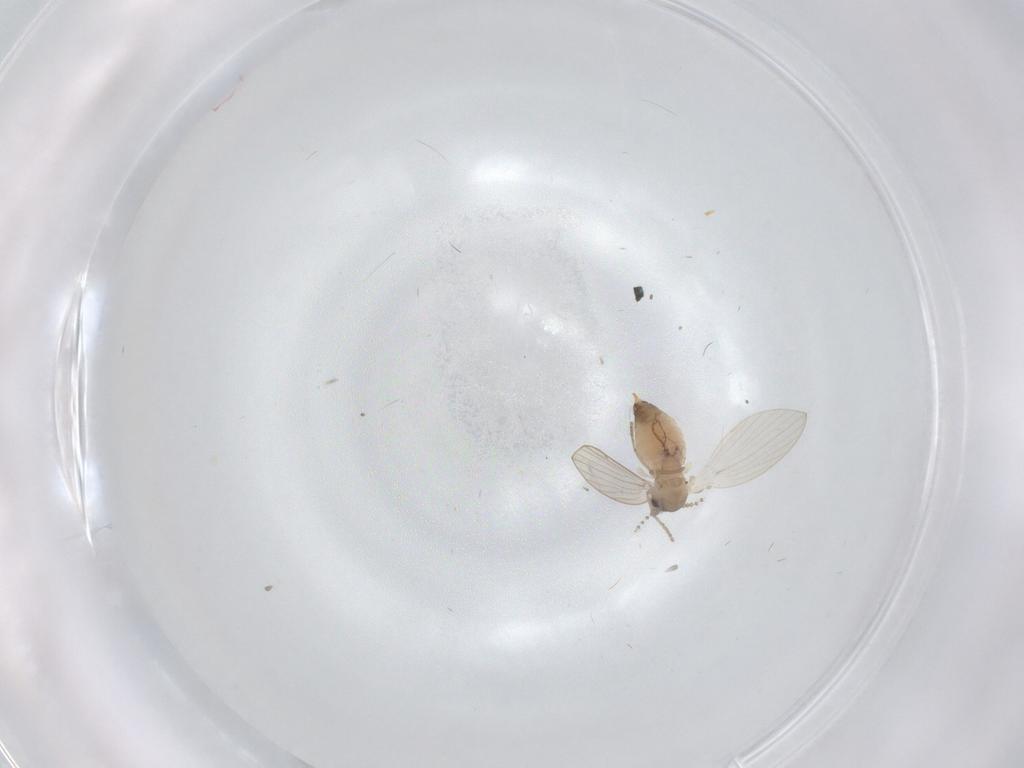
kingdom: Animalia
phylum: Arthropoda
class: Insecta
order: Diptera
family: Psychodidae
